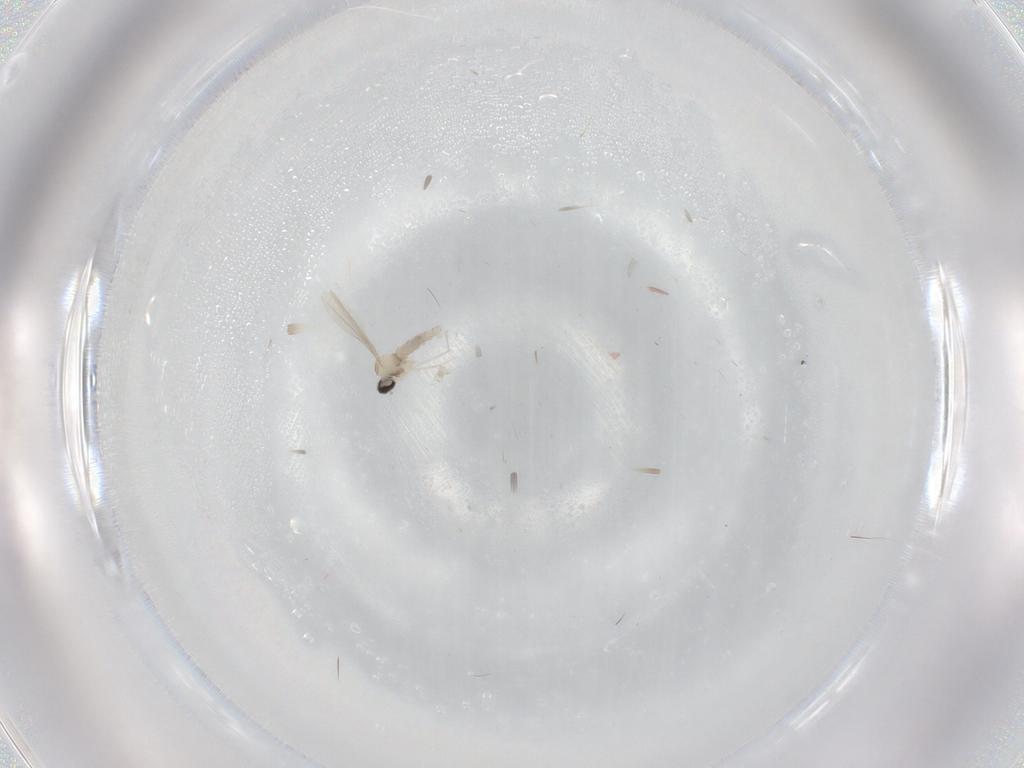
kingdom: Animalia
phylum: Arthropoda
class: Insecta
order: Diptera
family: Cecidomyiidae
